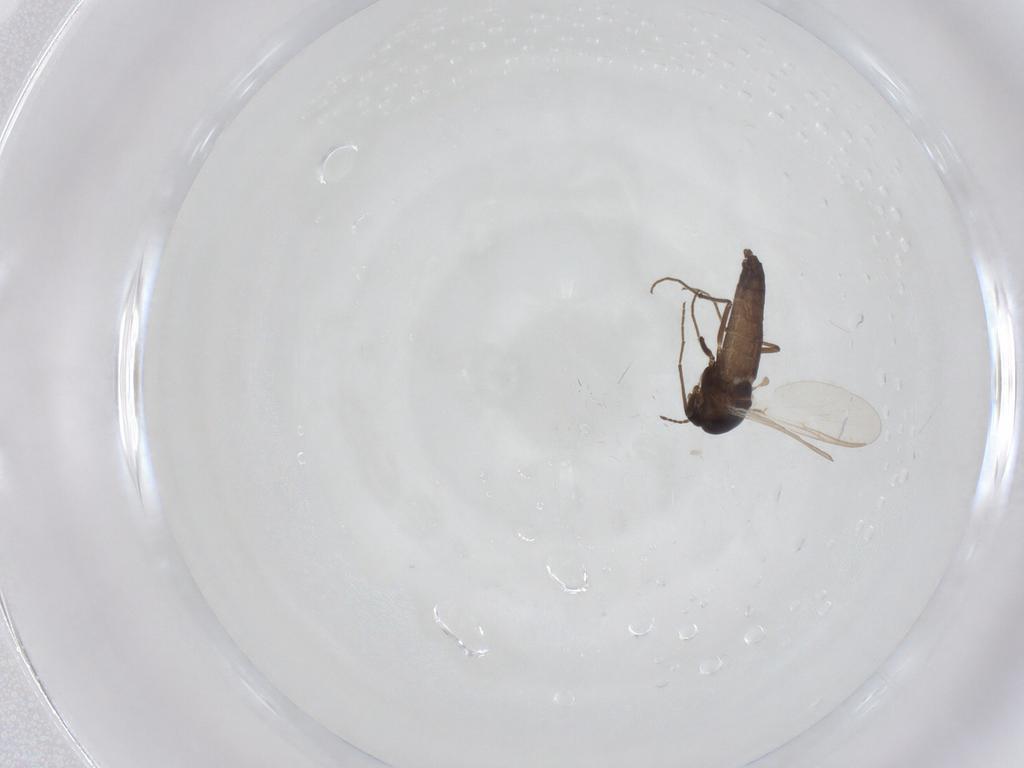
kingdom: Animalia
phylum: Arthropoda
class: Insecta
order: Diptera
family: Chironomidae
